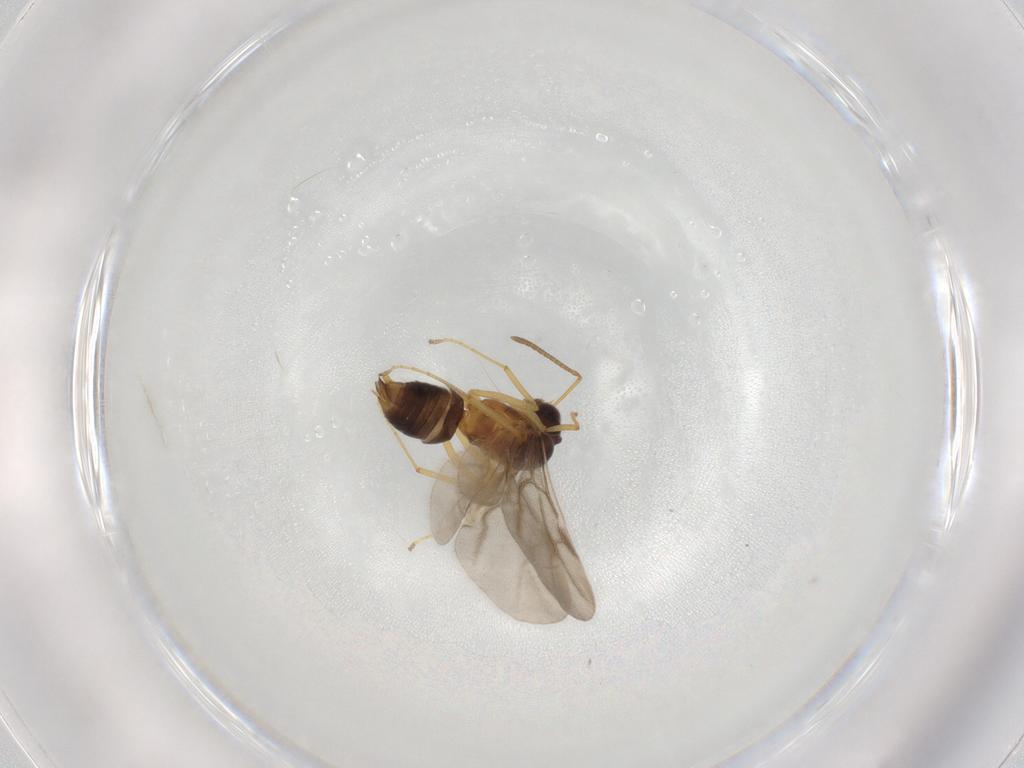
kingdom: Animalia
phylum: Arthropoda
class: Insecta
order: Hymenoptera
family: Formicidae
